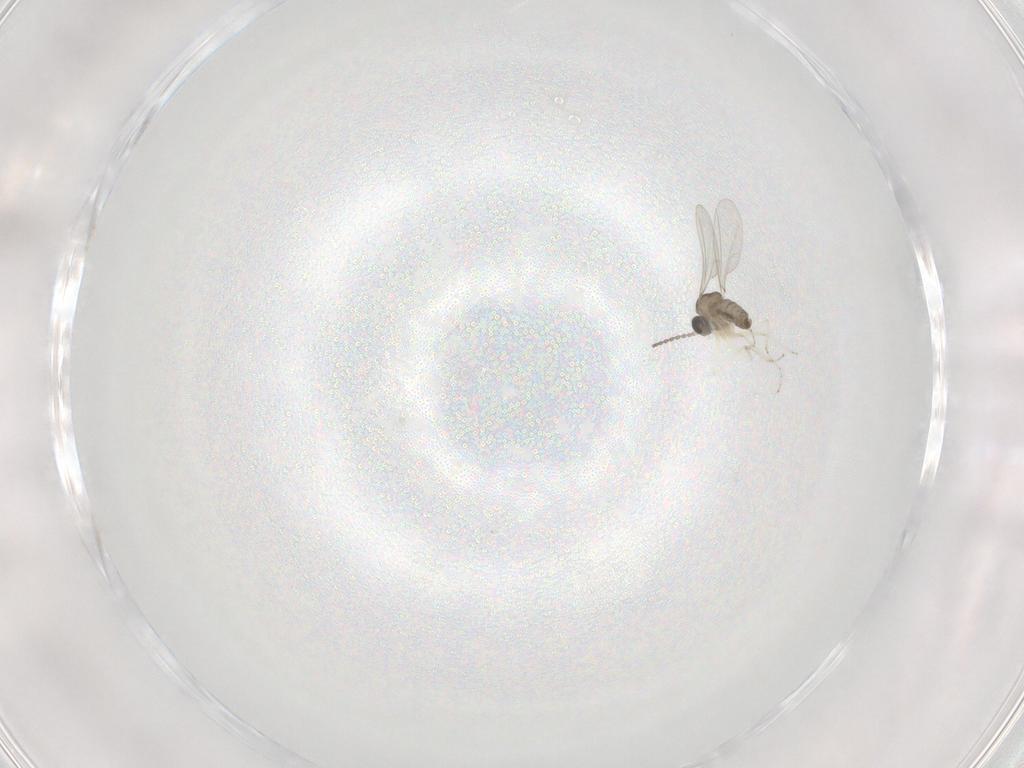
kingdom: Animalia
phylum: Arthropoda
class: Insecta
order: Diptera
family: Cecidomyiidae
